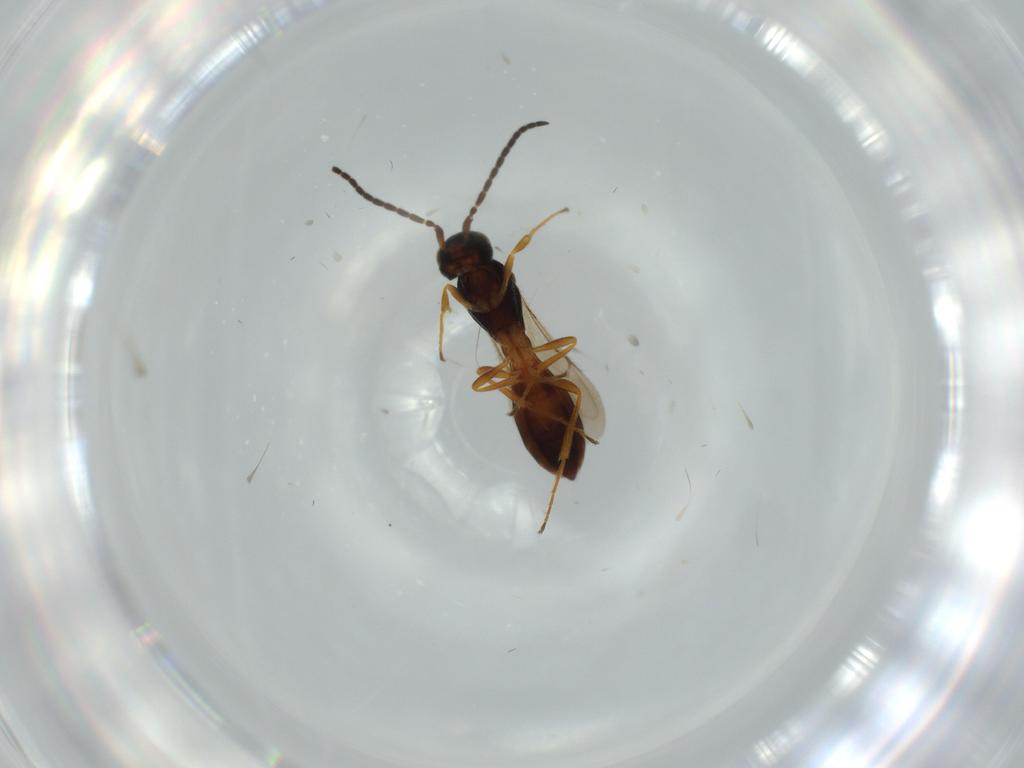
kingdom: Animalia
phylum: Arthropoda
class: Insecta
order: Hymenoptera
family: Scelionidae
